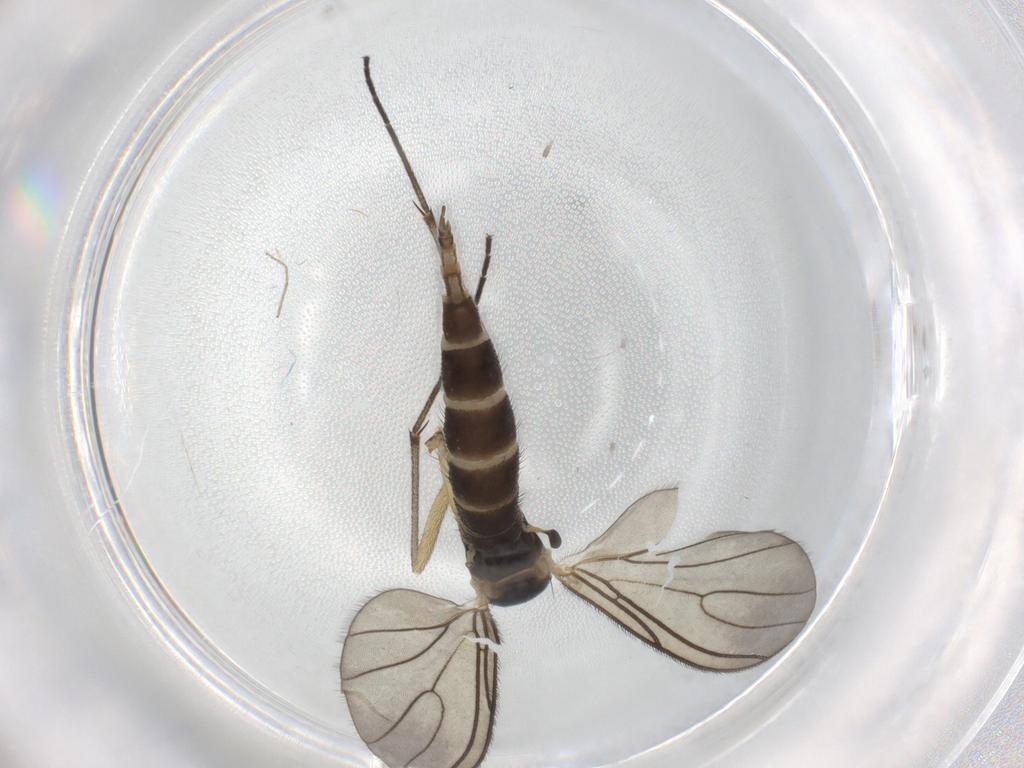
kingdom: Animalia
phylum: Arthropoda
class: Insecta
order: Diptera
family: Sciaridae
